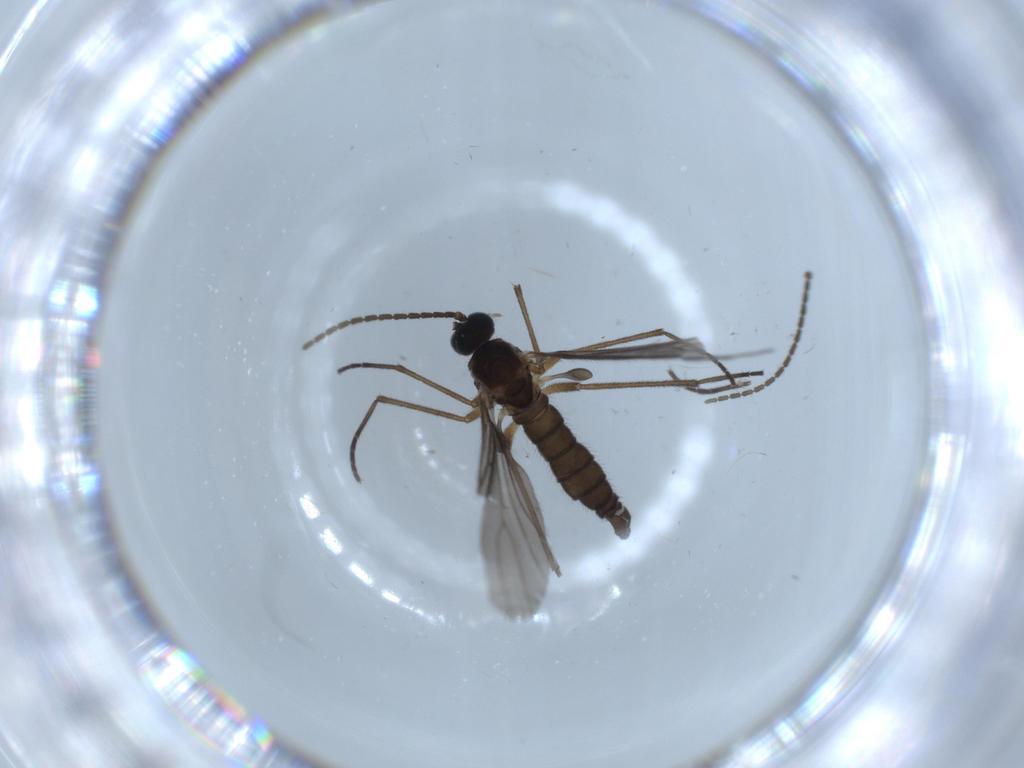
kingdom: Animalia
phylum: Arthropoda
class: Insecta
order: Diptera
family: Sciaridae
